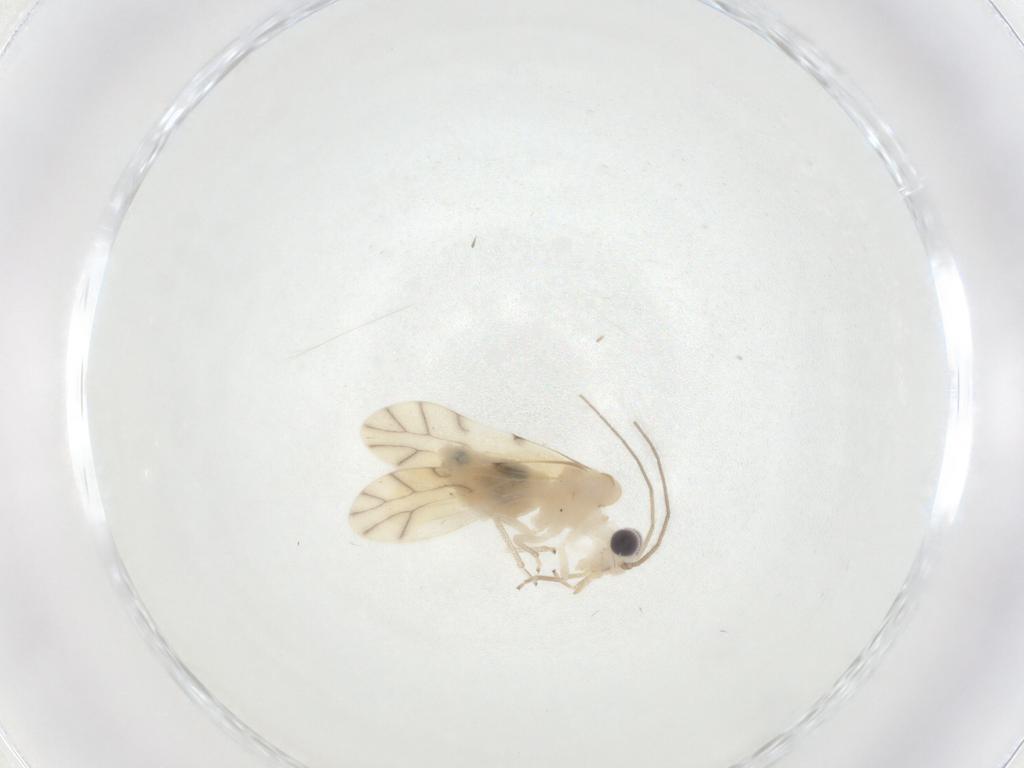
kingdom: Animalia
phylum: Arthropoda
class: Insecta
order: Psocodea
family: Caeciliusidae
